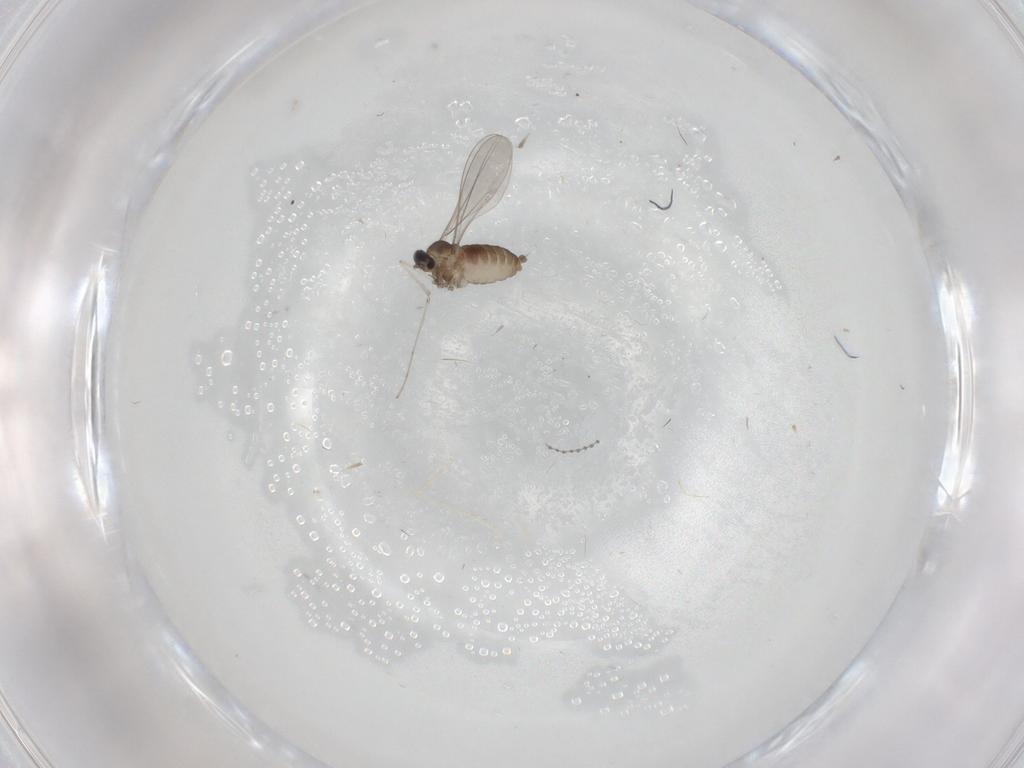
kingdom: Animalia
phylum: Arthropoda
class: Insecta
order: Diptera
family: Cecidomyiidae
